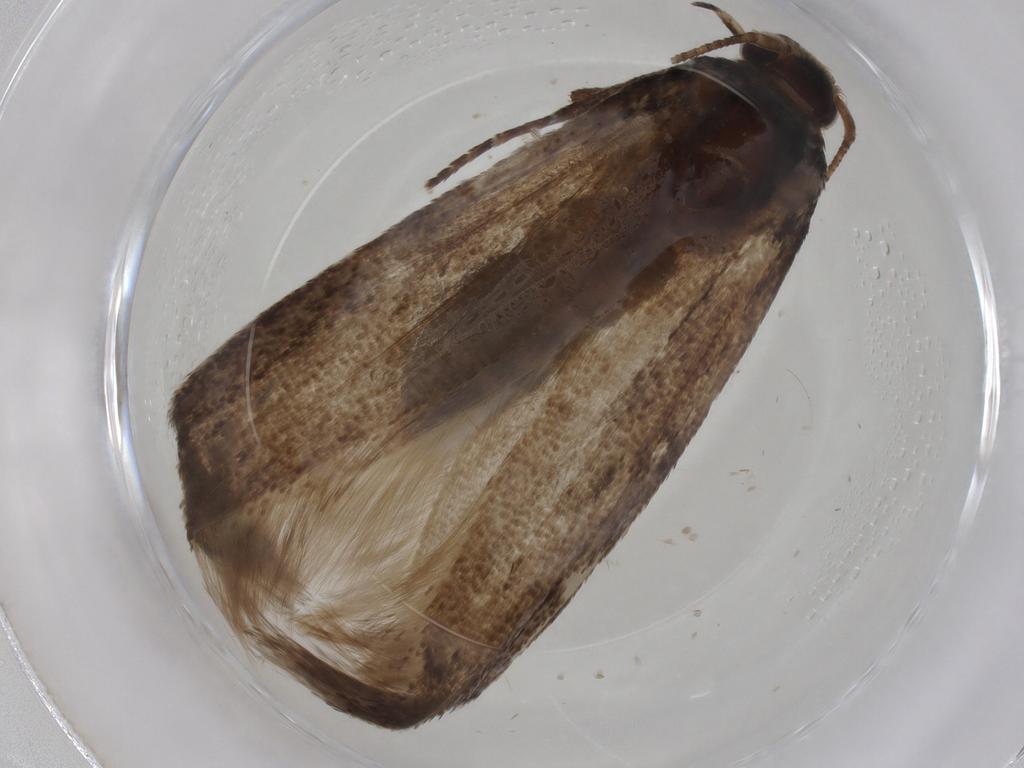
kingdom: Animalia
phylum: Arthropoda
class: Insecta
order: Lepidoptera
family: Blastobasidae
